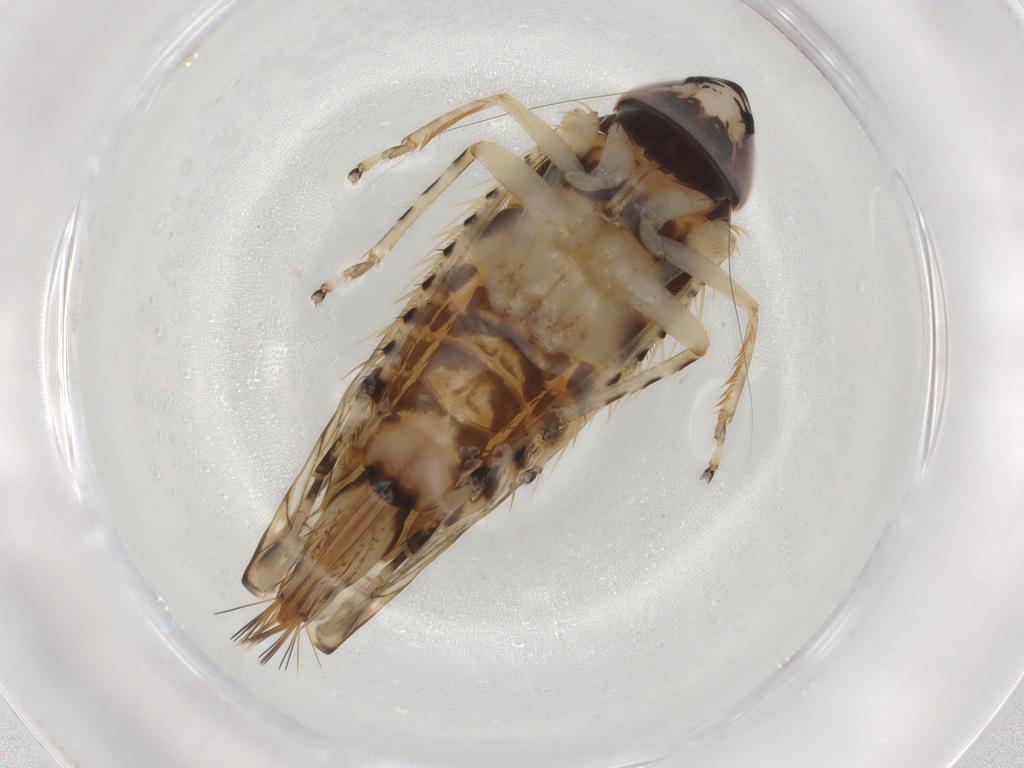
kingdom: Animalia
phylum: Arthropoda
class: Insecta
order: Hemiptera
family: Cicadellidae
